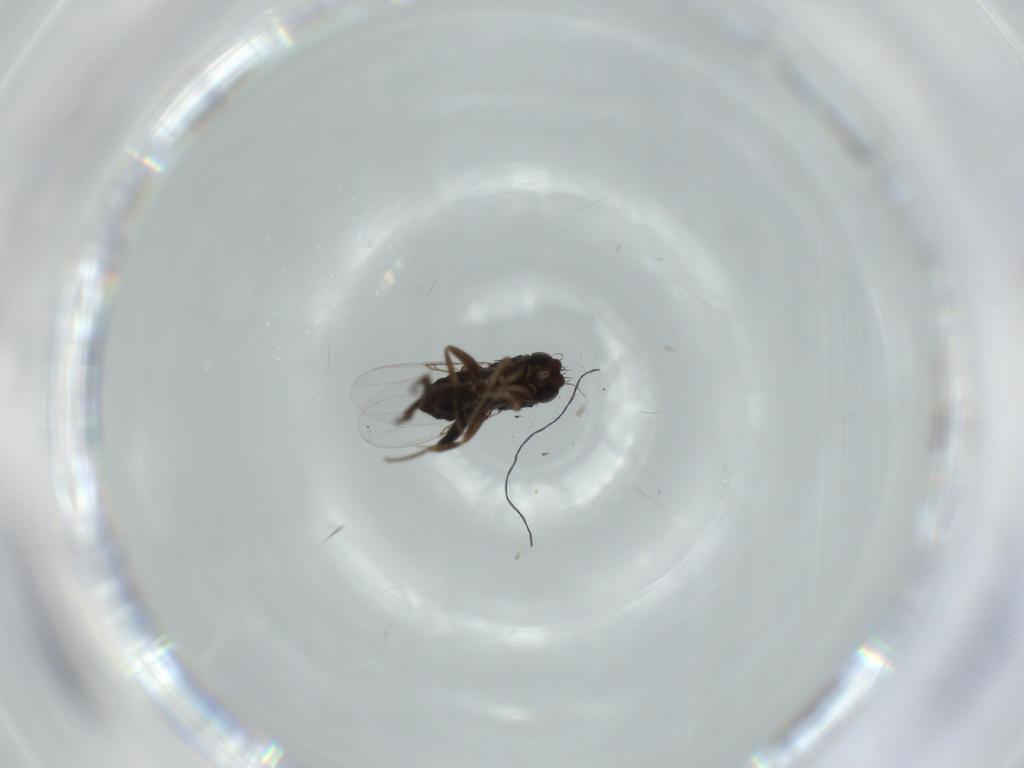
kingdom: Animalia
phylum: Arthropoda
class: Insecta
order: Diptera
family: Phoridae
